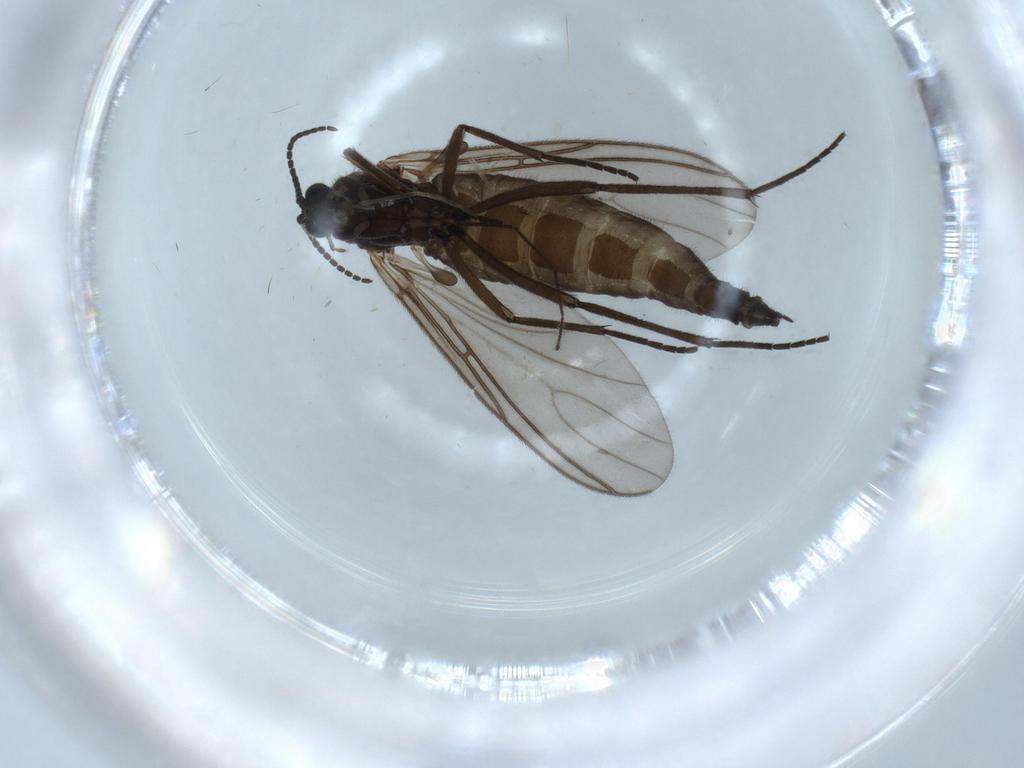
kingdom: Animalia
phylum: Arthropoda
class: Insecta
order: Diptera
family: Sciaridae
